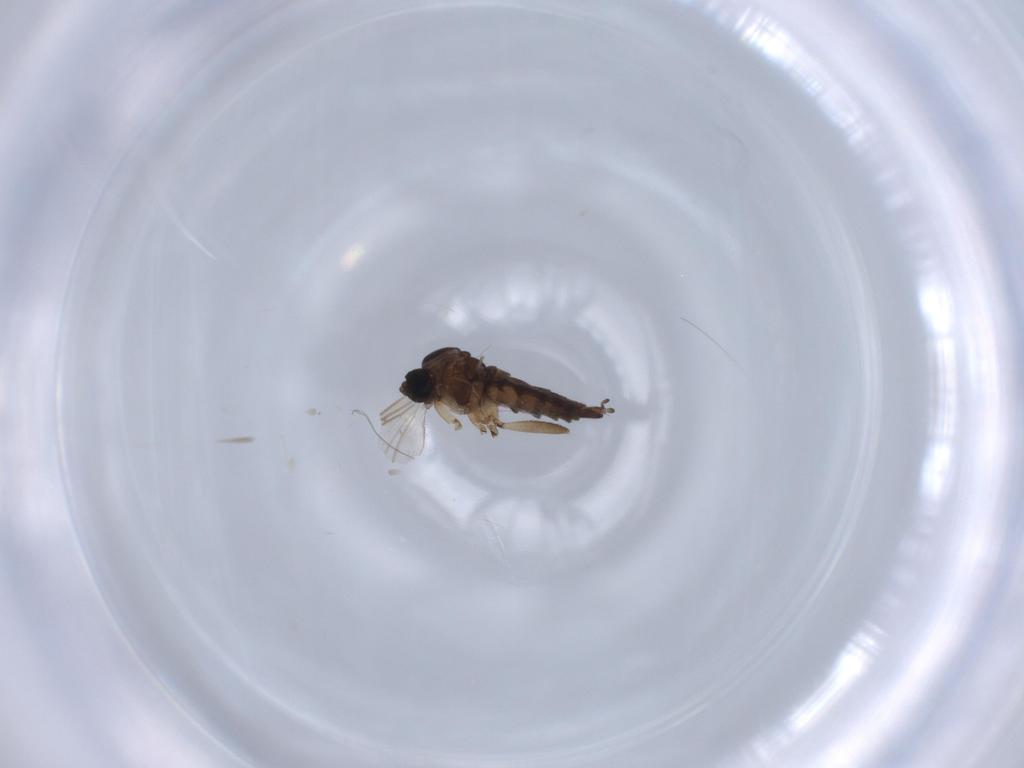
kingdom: Animalia
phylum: Arthropoda
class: Insecta
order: Diptera
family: Sciaridae
